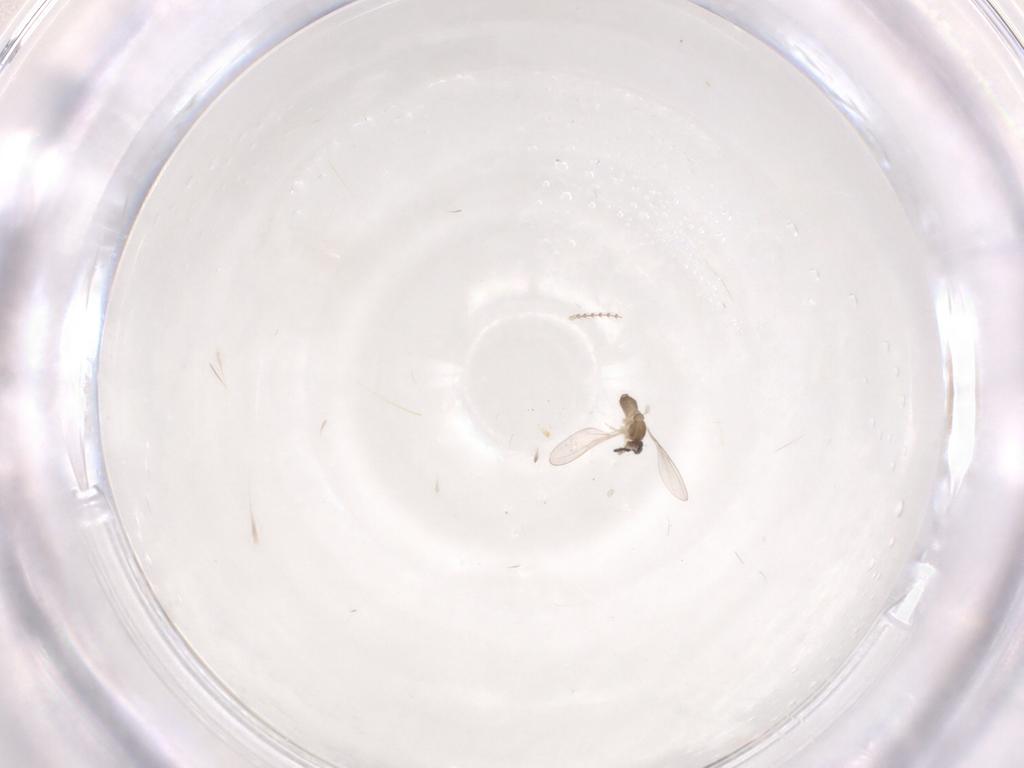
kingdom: Animalia
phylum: Arthropoda
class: Insecta
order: Diptera
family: Cecidomyiidae
